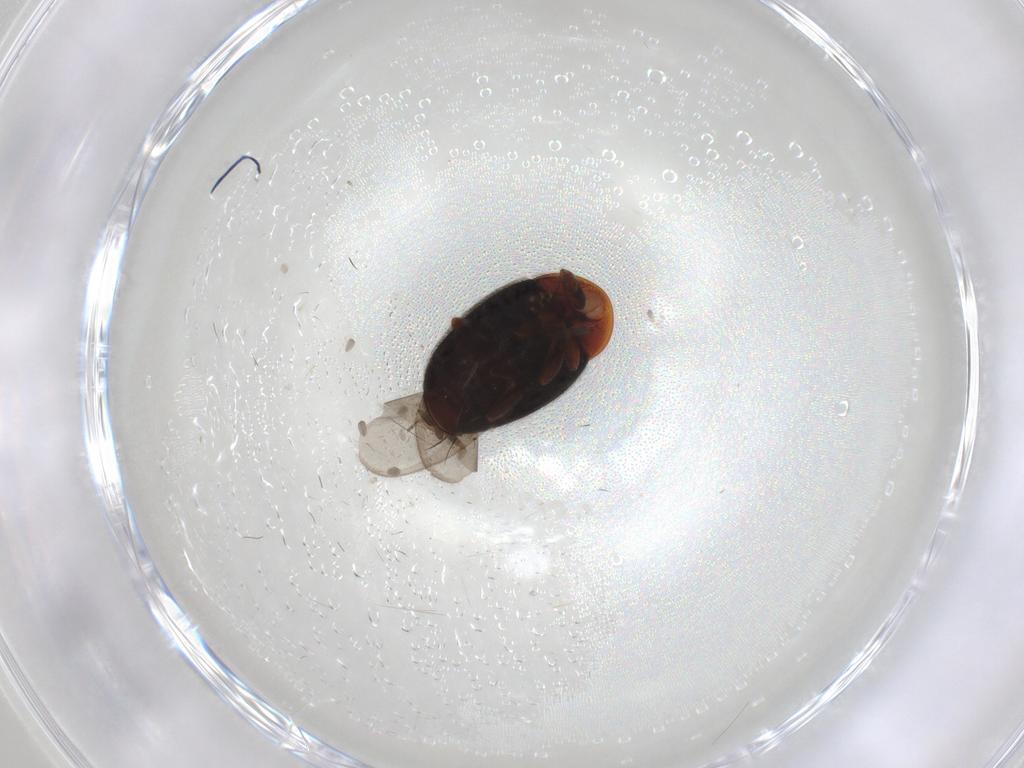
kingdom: Animalia
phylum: Arthropoda
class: Insecta
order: Coleoptera
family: Corylophidae
